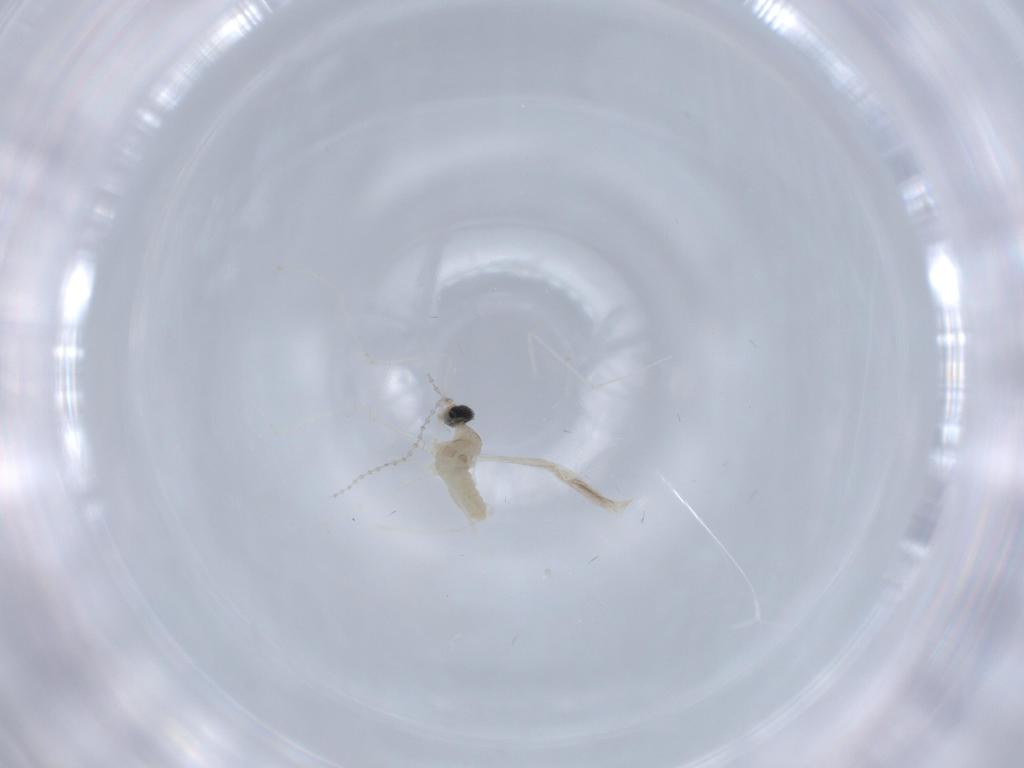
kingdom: Animalia
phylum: Arthropoda
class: Insecta
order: Diptera
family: Cecidomyiidae
